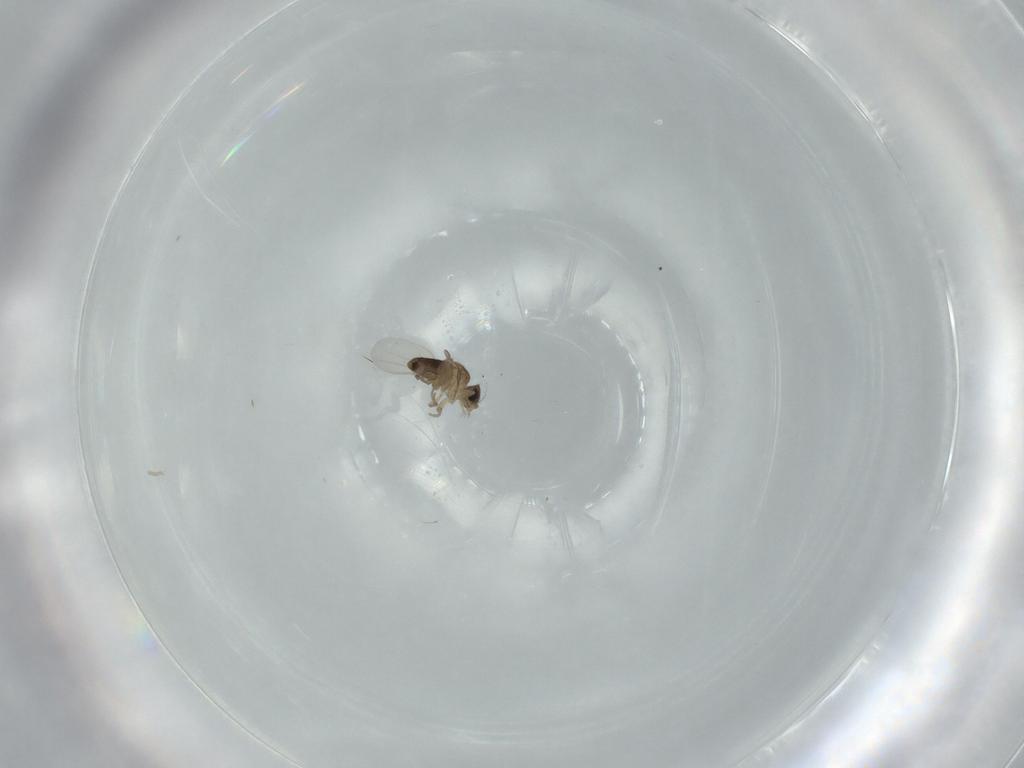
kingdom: Animalia
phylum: Arthropoda
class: Insecta
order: Diptera
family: Phoridae
